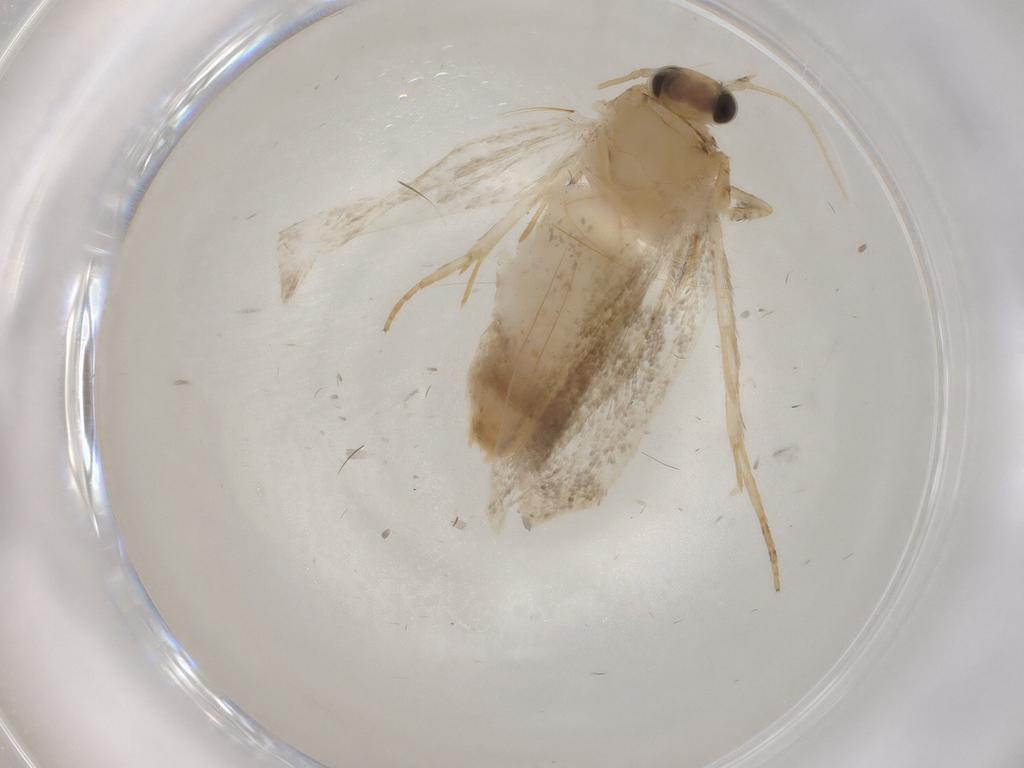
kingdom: Animalia
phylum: Arthropoda
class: Insecta
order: Lepidoptera
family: Noctuidae
